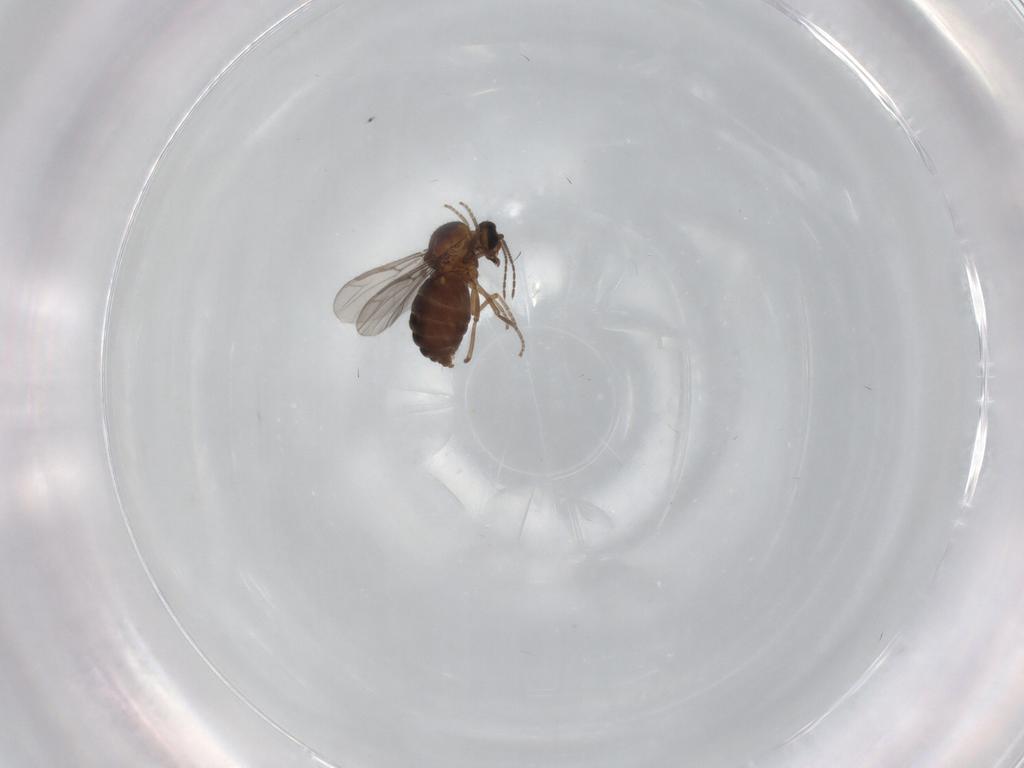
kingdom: Animalia
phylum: Arthropoda
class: Insecta
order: Diptera
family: Ceratopogonidae
